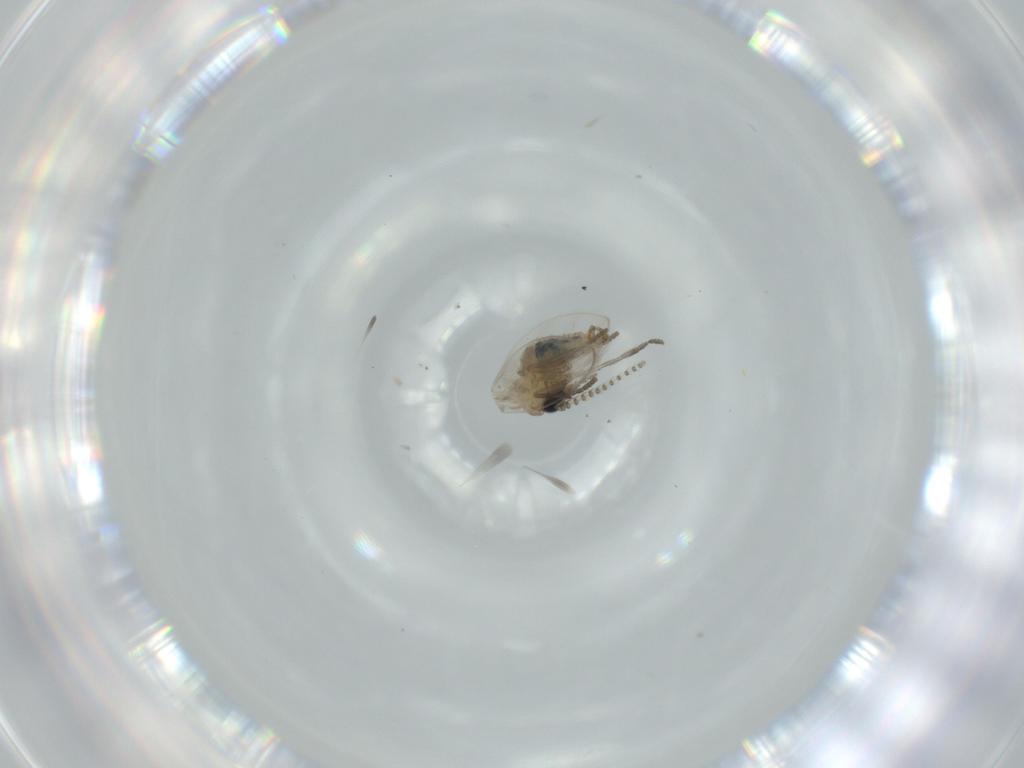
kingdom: Animalia
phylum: Arthropoda
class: Insecta
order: Diptera
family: Psychodidae
